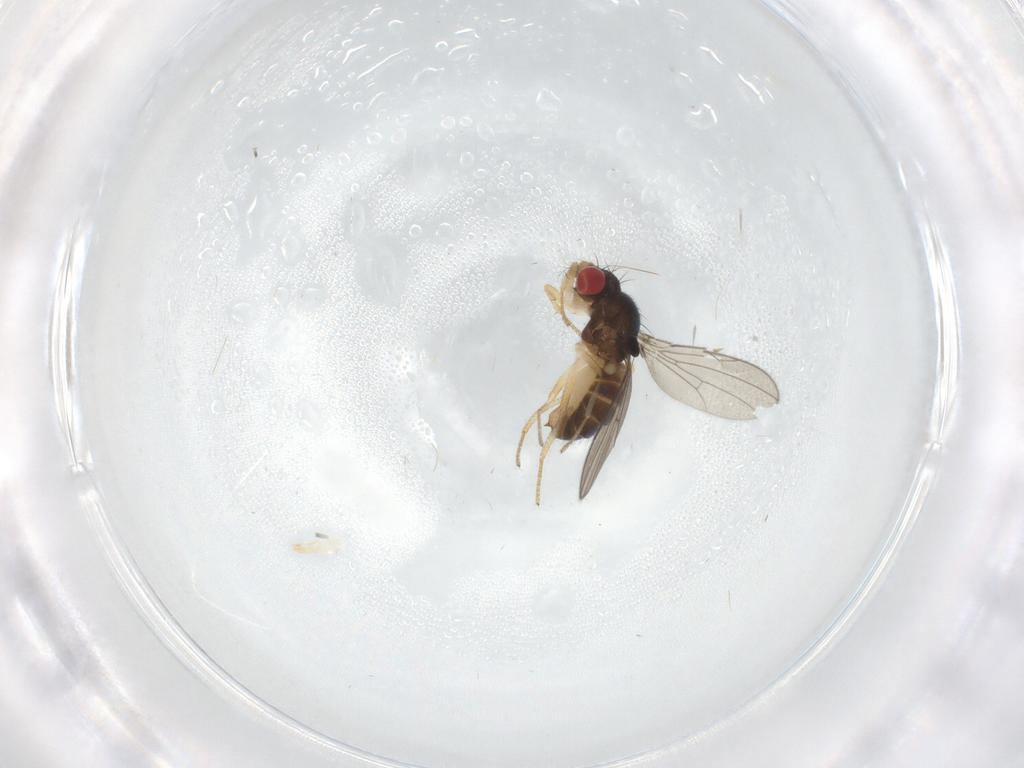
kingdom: Animalia
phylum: Arthropoda
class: Insecta
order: Diptera
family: Drosophilidae
